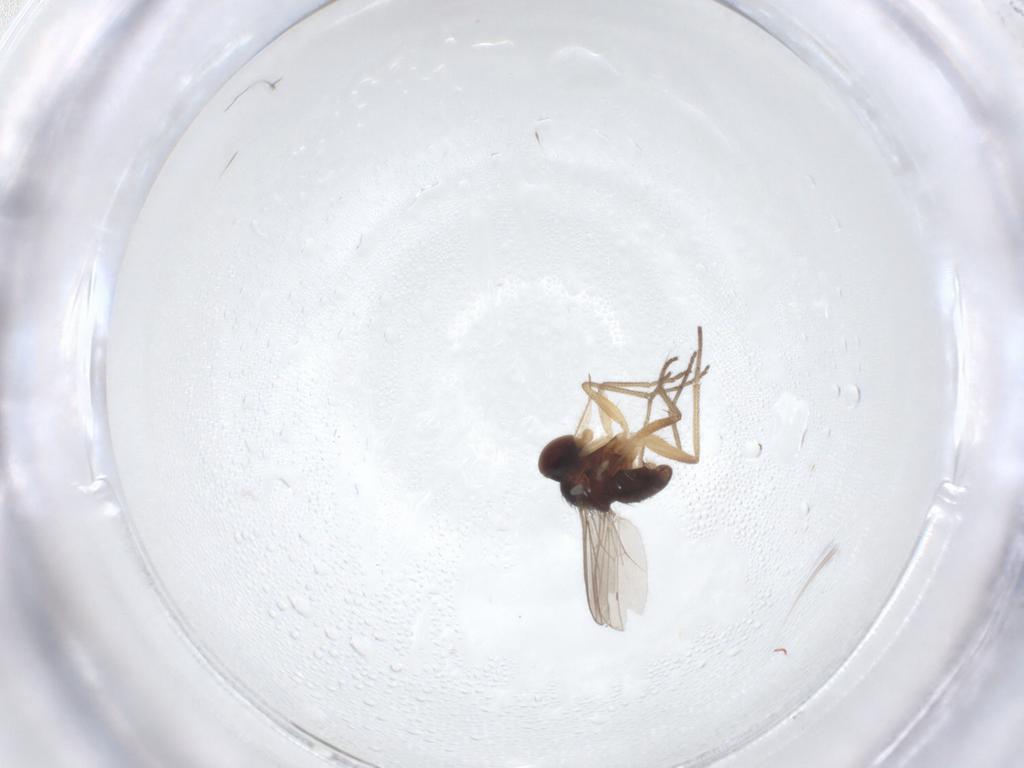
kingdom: Animalia
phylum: Arthropoda
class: Insecta
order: Diptera
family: Dolichopodidae
